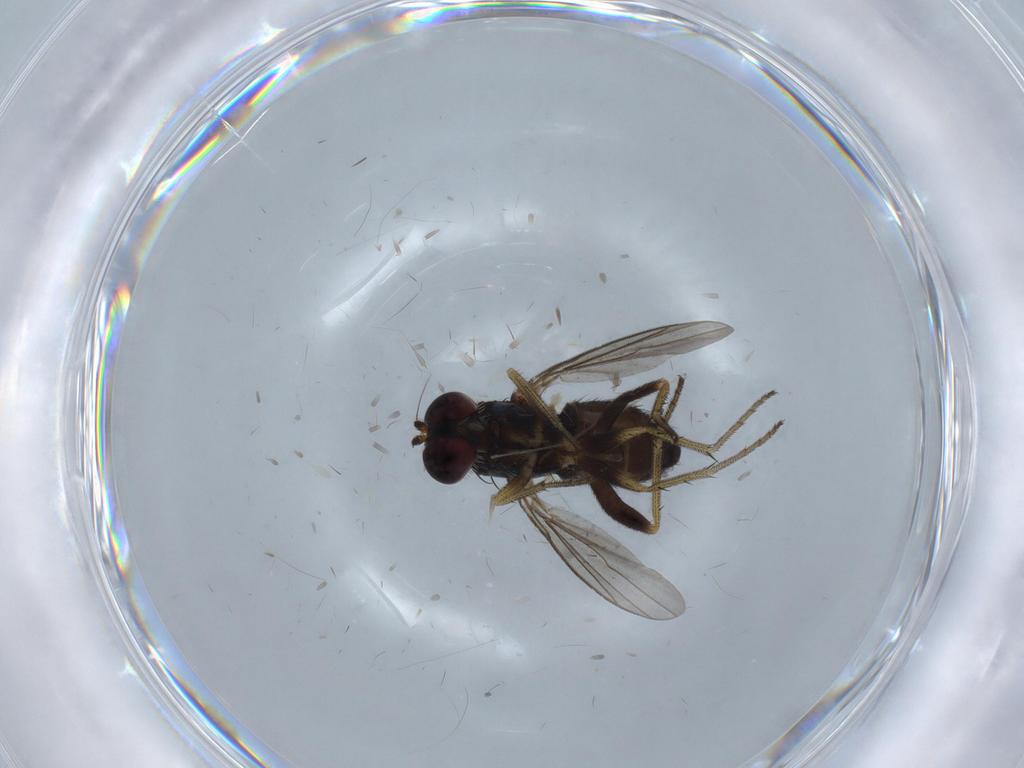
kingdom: Animalia
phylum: Arthropoda
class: Insecta
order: Diptera
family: Chironomidae
